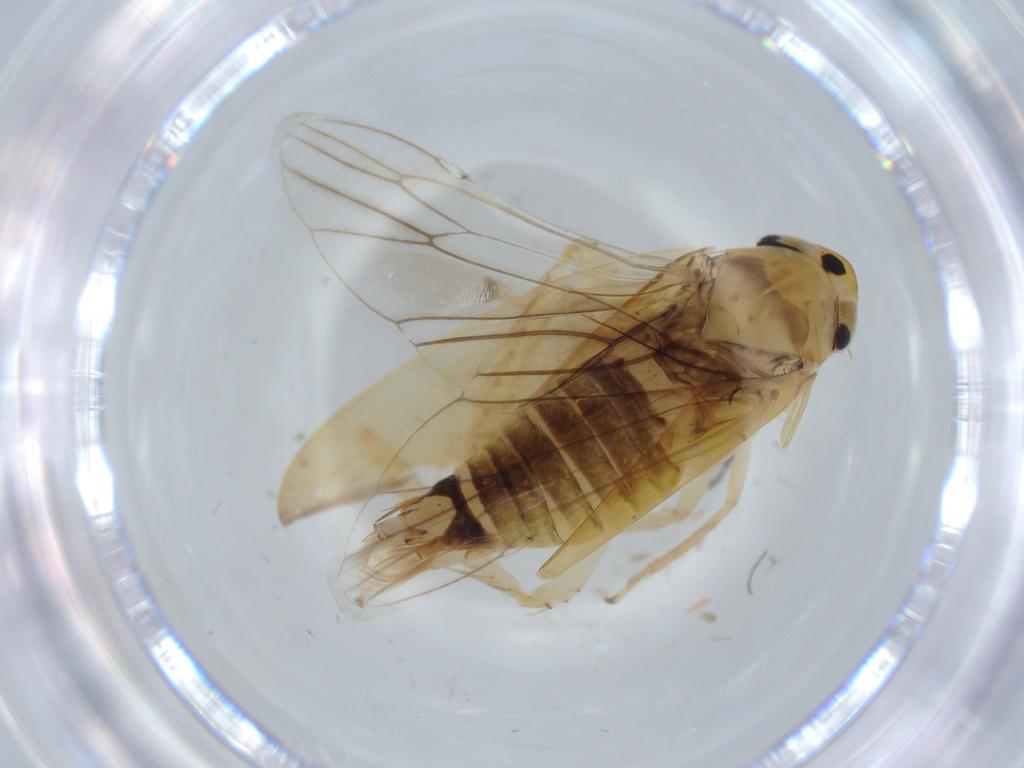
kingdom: Animalia
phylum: Arthropoda
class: Insecta
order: Hemiptera
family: Cicadellidae
